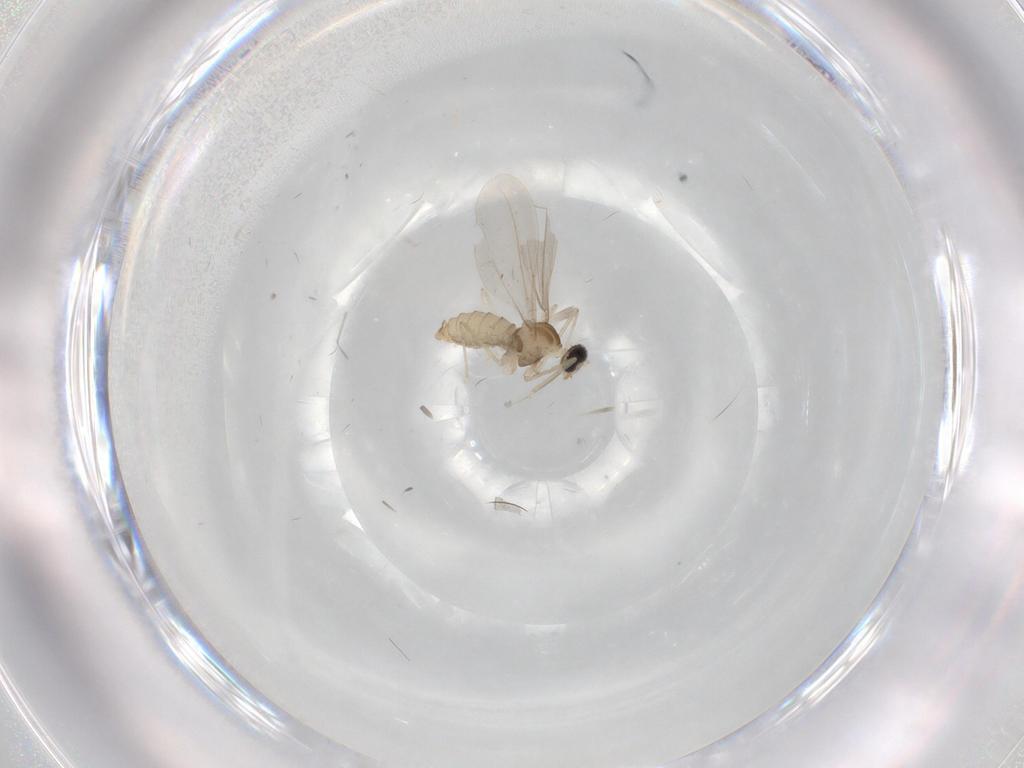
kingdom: Animalia
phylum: Arthropoda
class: Insecta
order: Diptera
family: Cecidomyiidae
